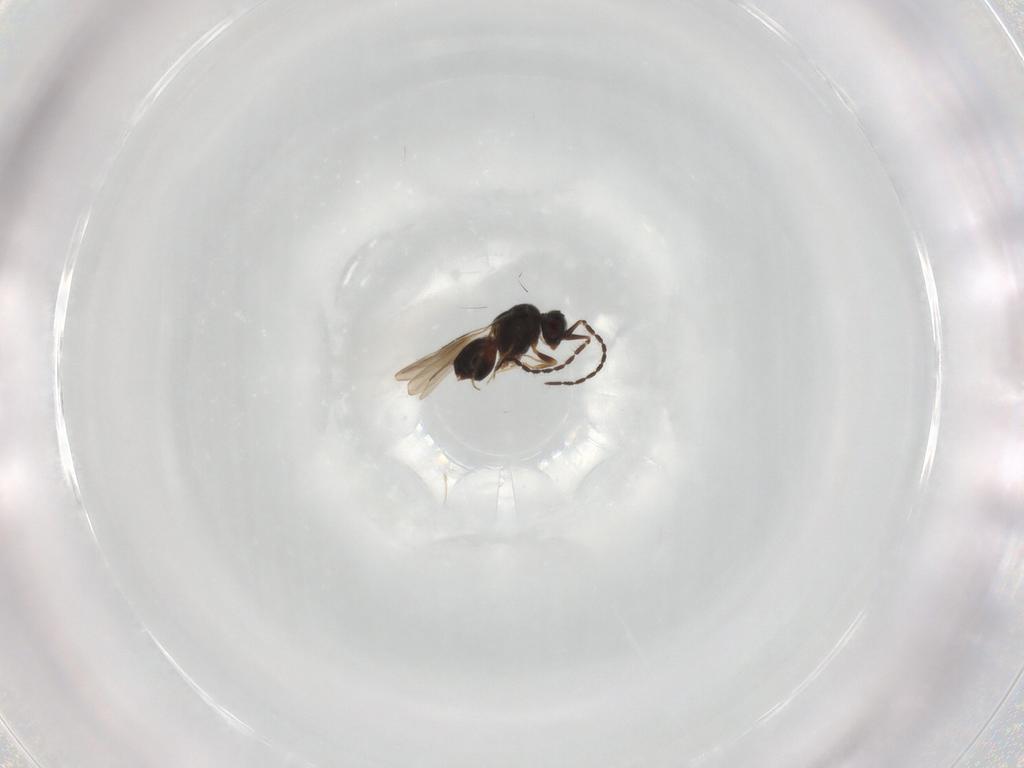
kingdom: Animalia
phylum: Arthropoda
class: Insecta
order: Hymenoptera
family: Ceraphronidae
